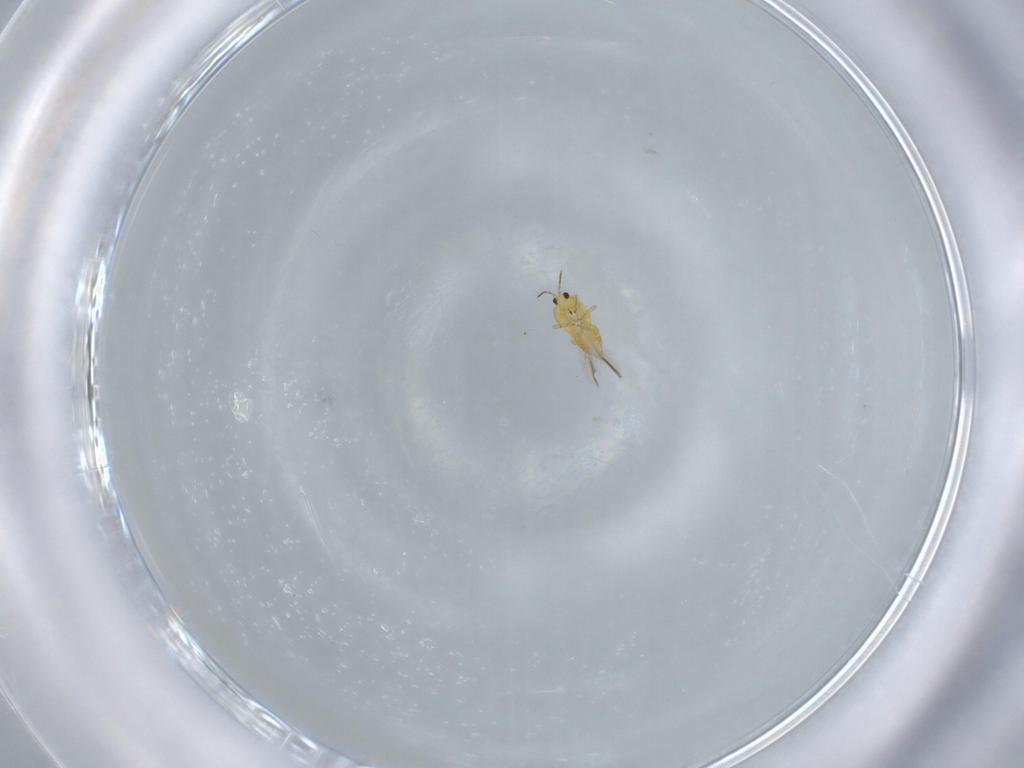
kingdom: Animalia
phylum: Arthropoda
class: Insecta
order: Thysanoptera
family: Thripidae
